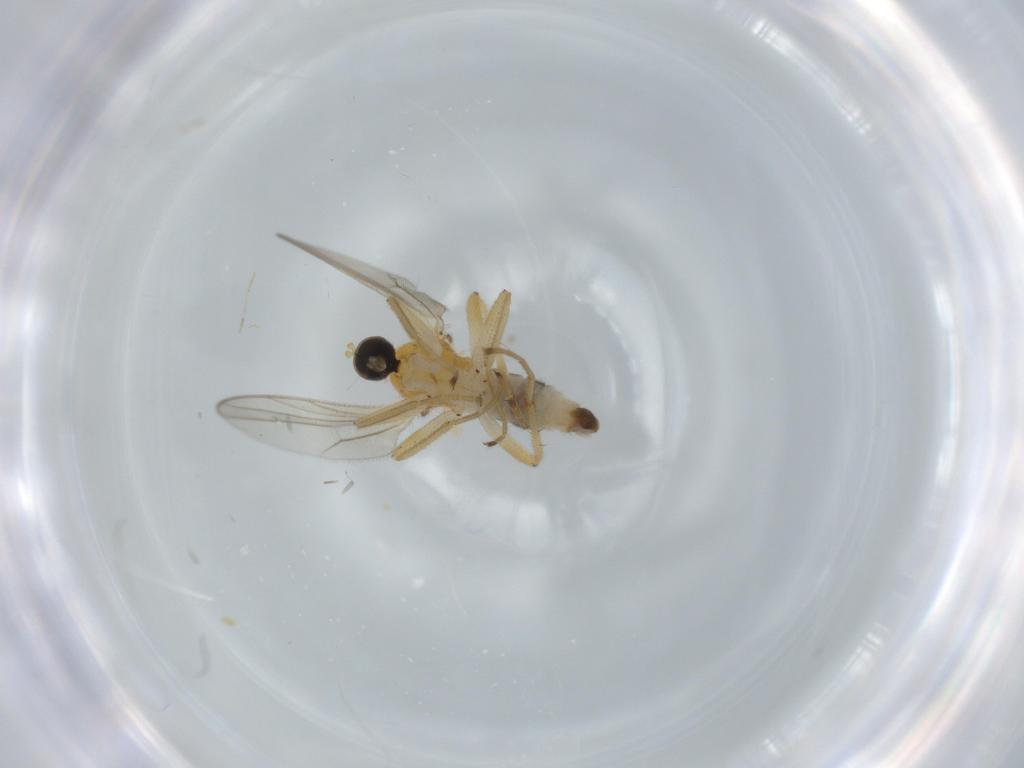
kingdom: Animalia
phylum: Arthropoda
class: Insecta
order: Diptera
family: Hybotidae
